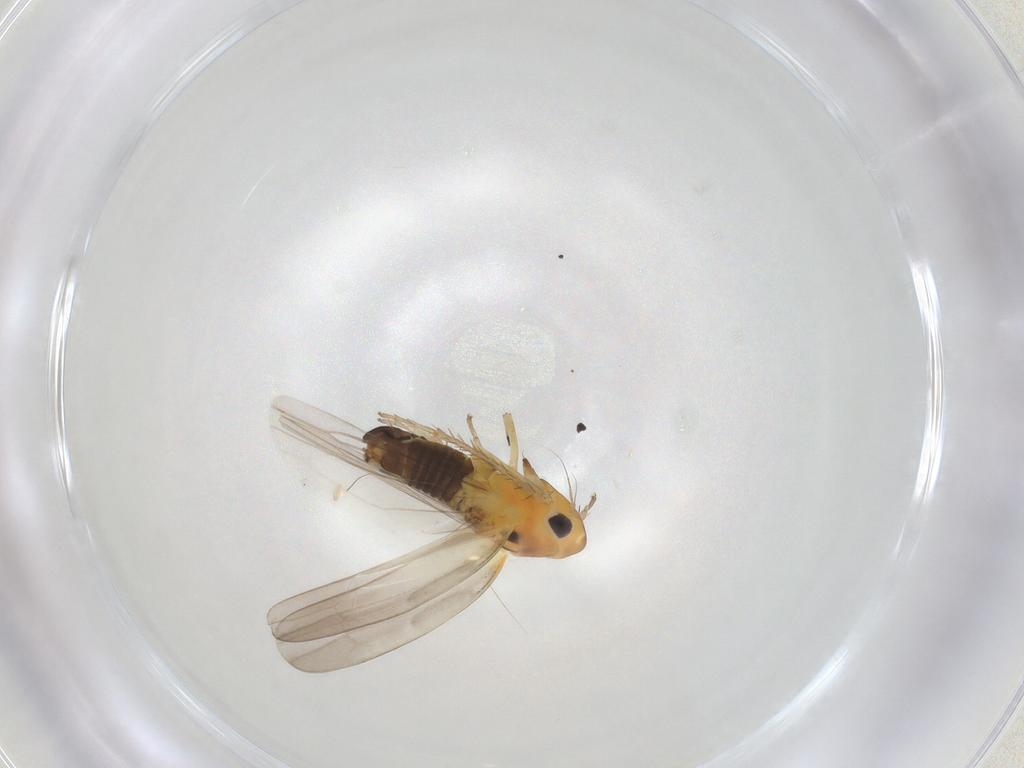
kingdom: Animalia
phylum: Arthropoda
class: Insecta
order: Hemiptera
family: Cicadellidae
